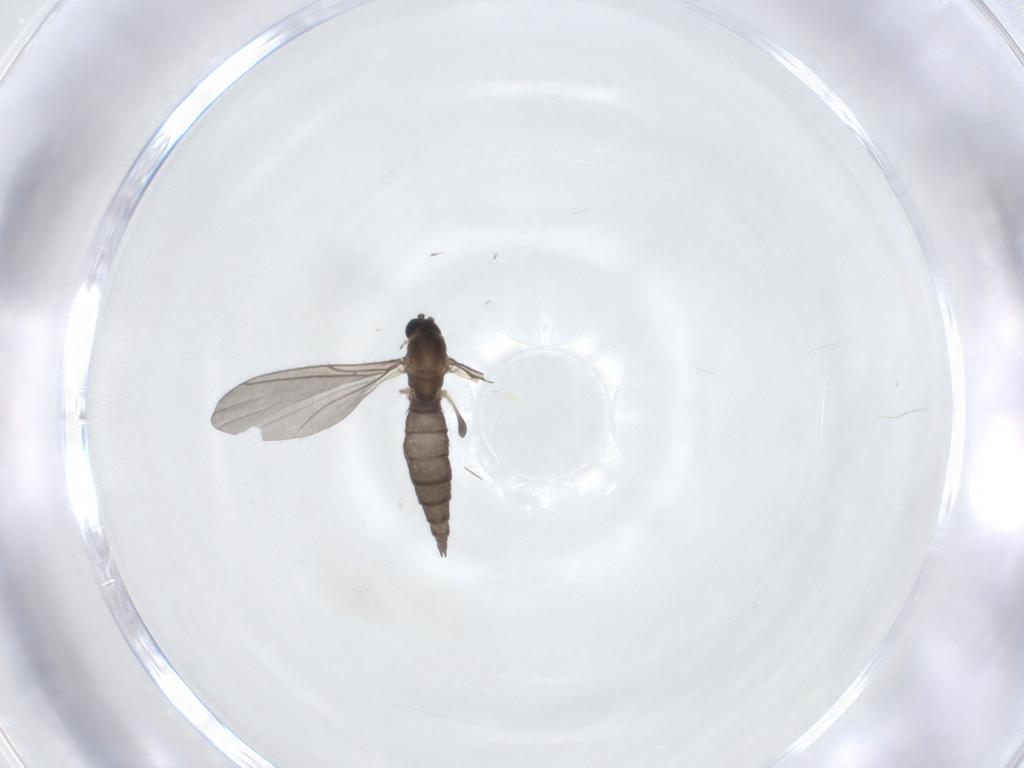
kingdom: Animalia
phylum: Arthropoda
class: Insecta
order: Diptera
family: Sciaridae
